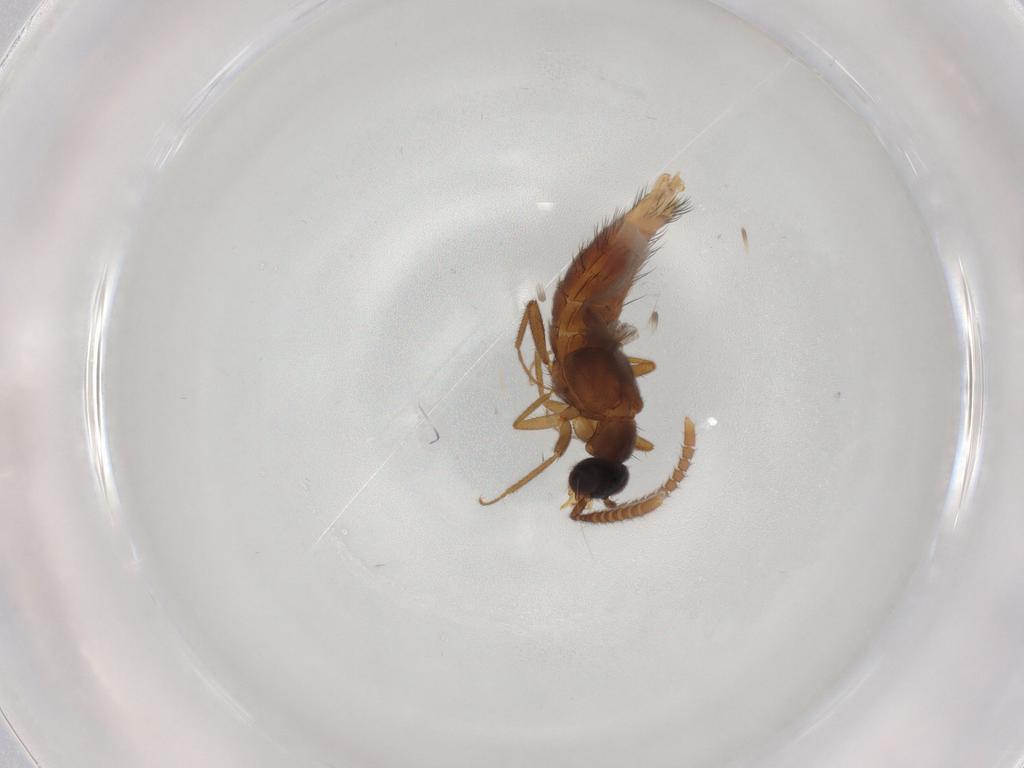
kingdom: Animalia
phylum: Arthropoda
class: Insecta
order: Coleoptera
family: Staphylinidae
